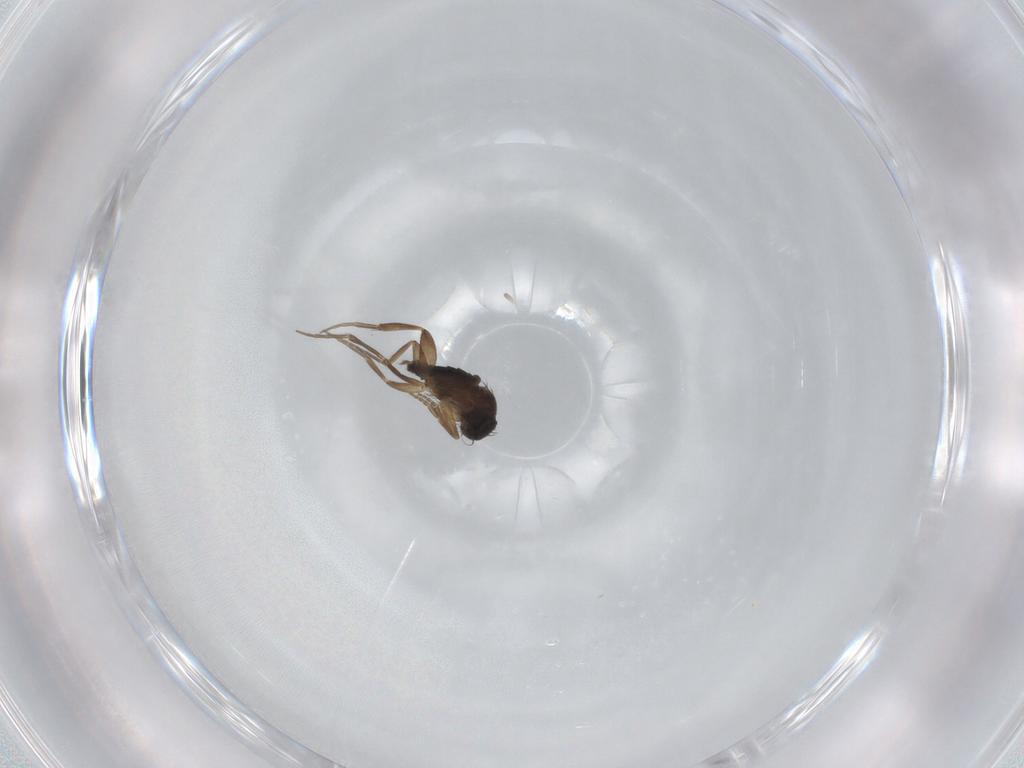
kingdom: Animalia
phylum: Arthropoda
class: Insecta
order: Diptera
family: Phoridae
